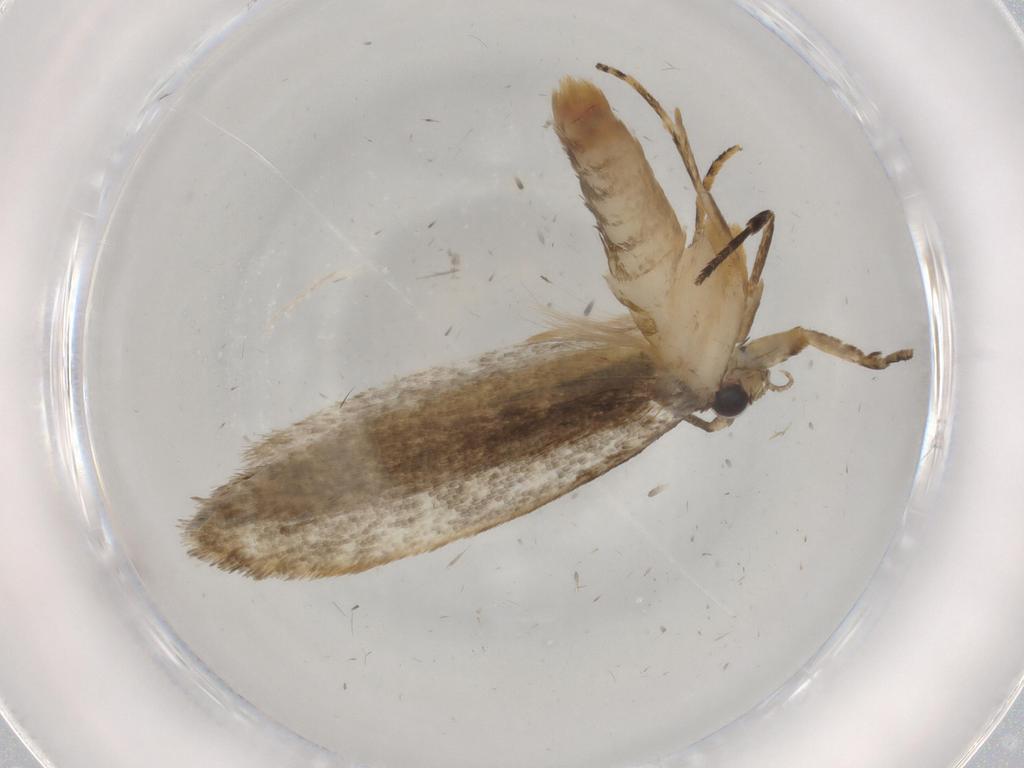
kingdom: Animalia
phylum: Arthropoda
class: Insecta
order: Lepidoptera
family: Tineidae
